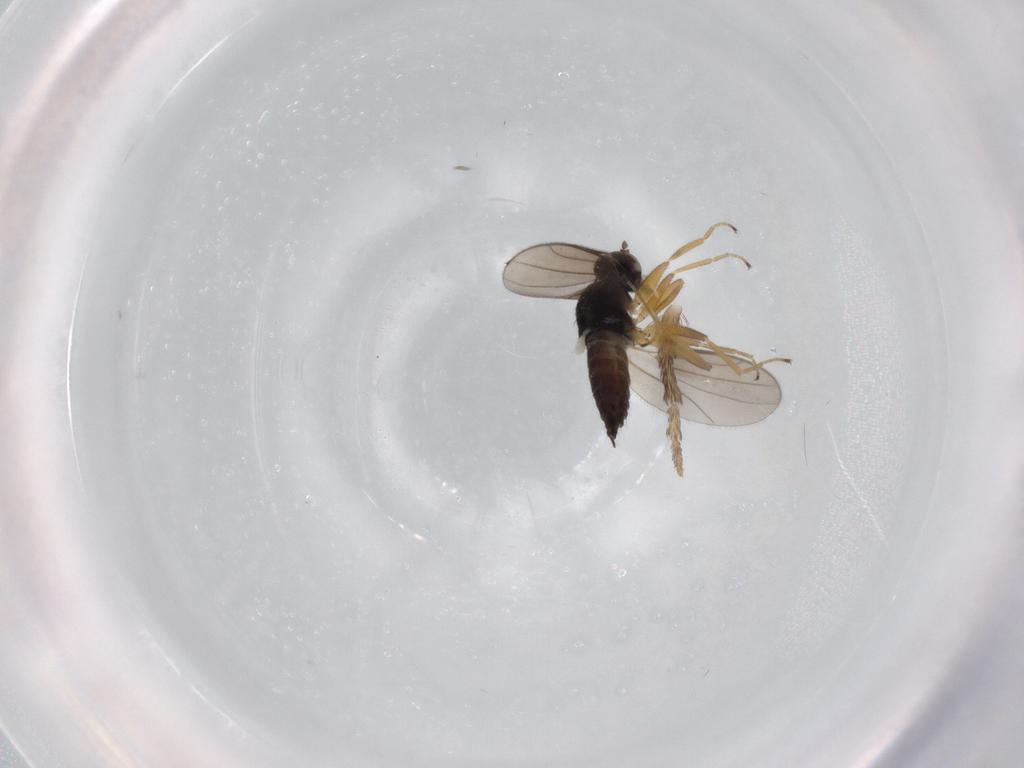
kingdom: Animalia
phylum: Arthropoda
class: Insecta
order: Diptera
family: Hybotidae
